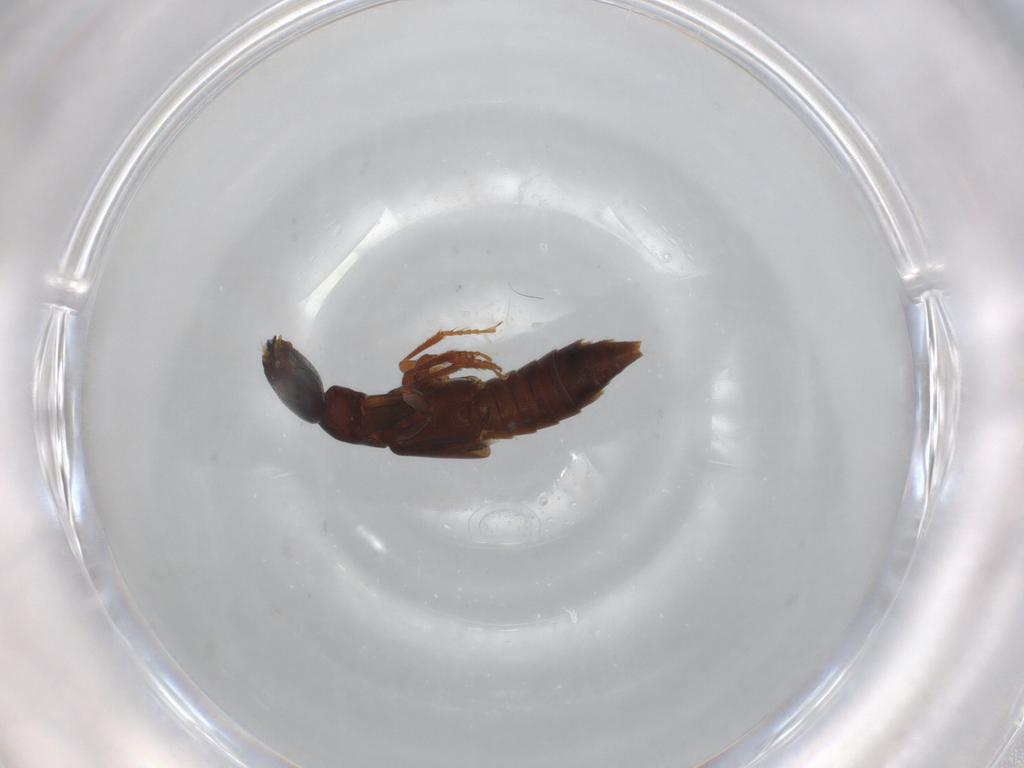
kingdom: Animalia
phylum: Arthropoda
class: Insecta
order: Coleoptera
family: Staphylinidae
